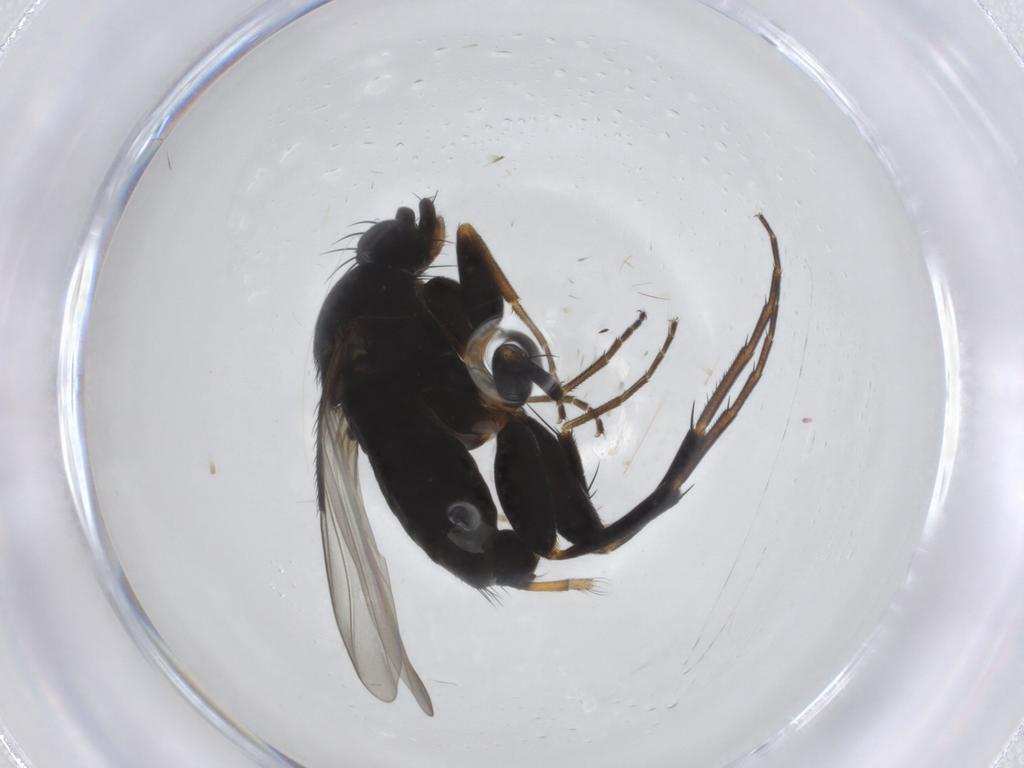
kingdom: Animalia
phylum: Arthropoda
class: Insecta
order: Diptera
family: Phoridae
